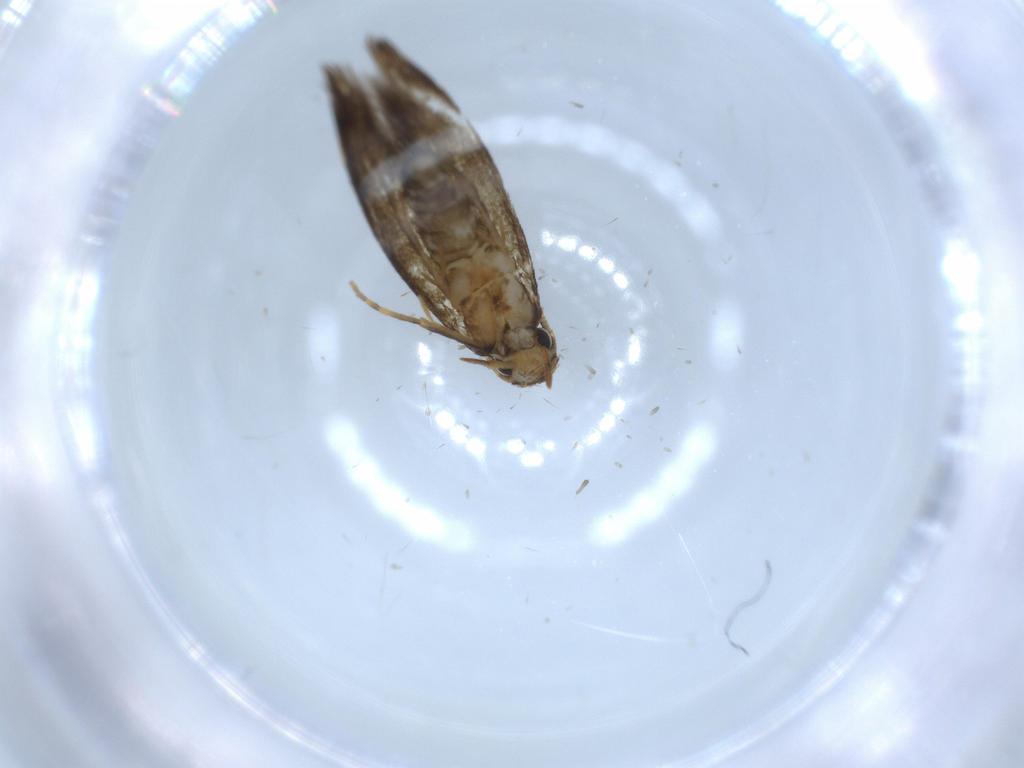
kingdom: Animalia
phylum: Arthropoda
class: Insecta
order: Lepidoptera
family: Tineidae
